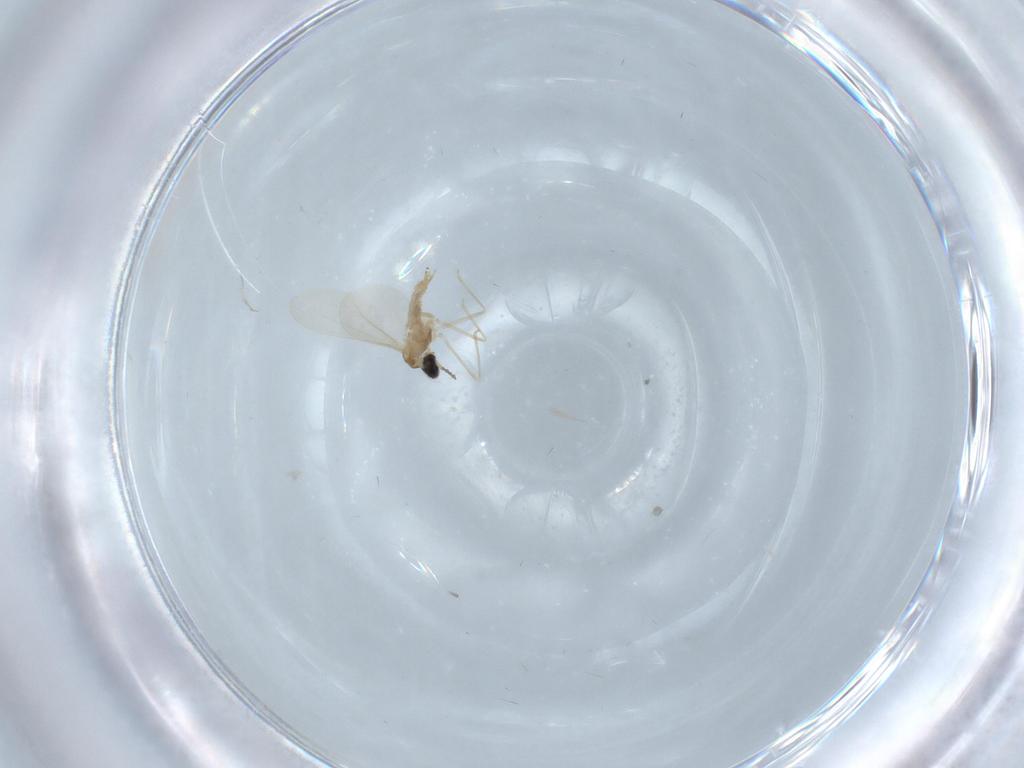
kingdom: Animalia
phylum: Arthropoda
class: Insecta
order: Diptera
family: Cecidomyiidae
